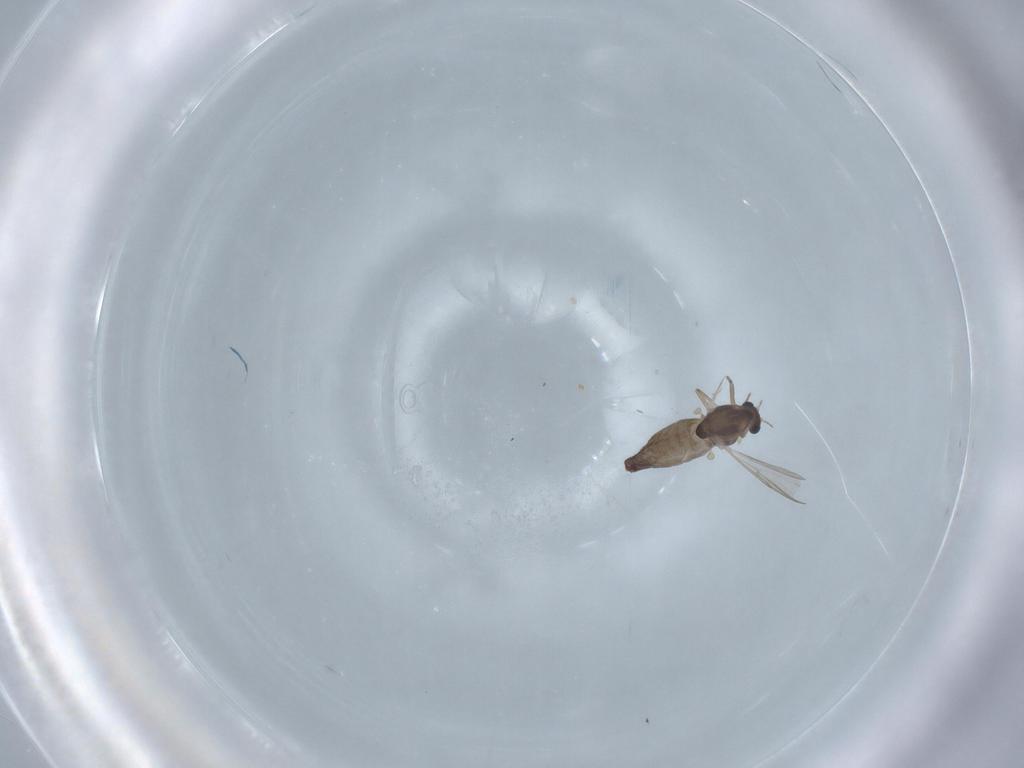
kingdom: Animalia
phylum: Arthropoda
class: Insecta
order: Diptera
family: Chironomidae
